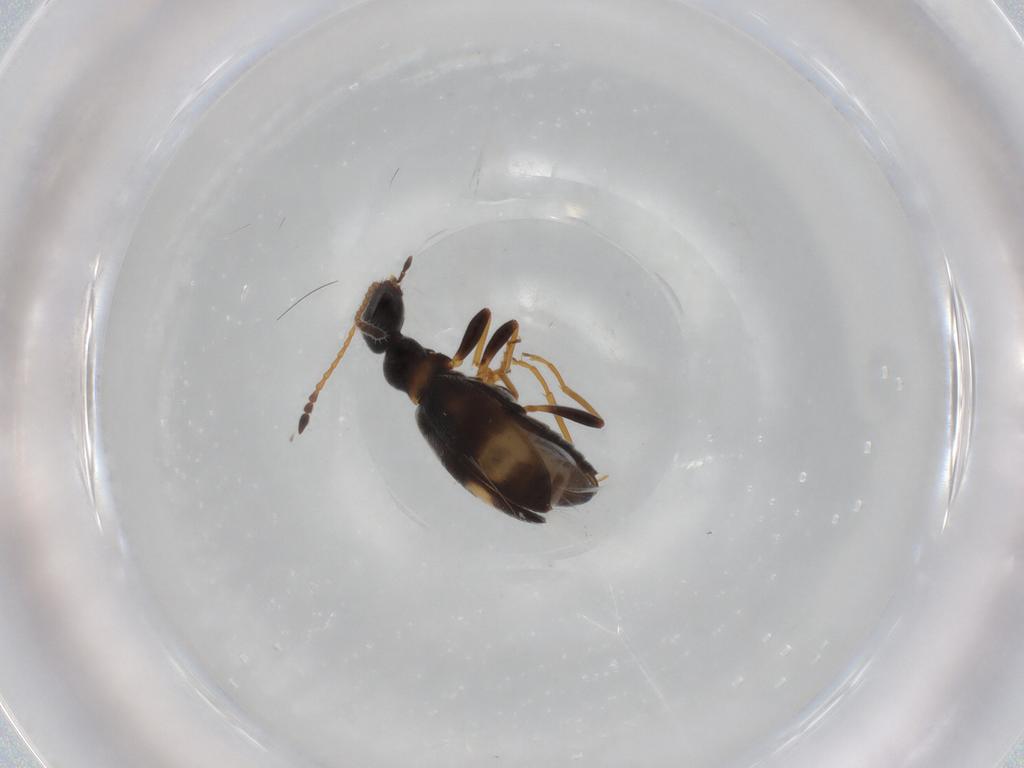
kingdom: Animalia
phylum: Arthropoda
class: Insecta
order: Coleoptera
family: Anthicidae
